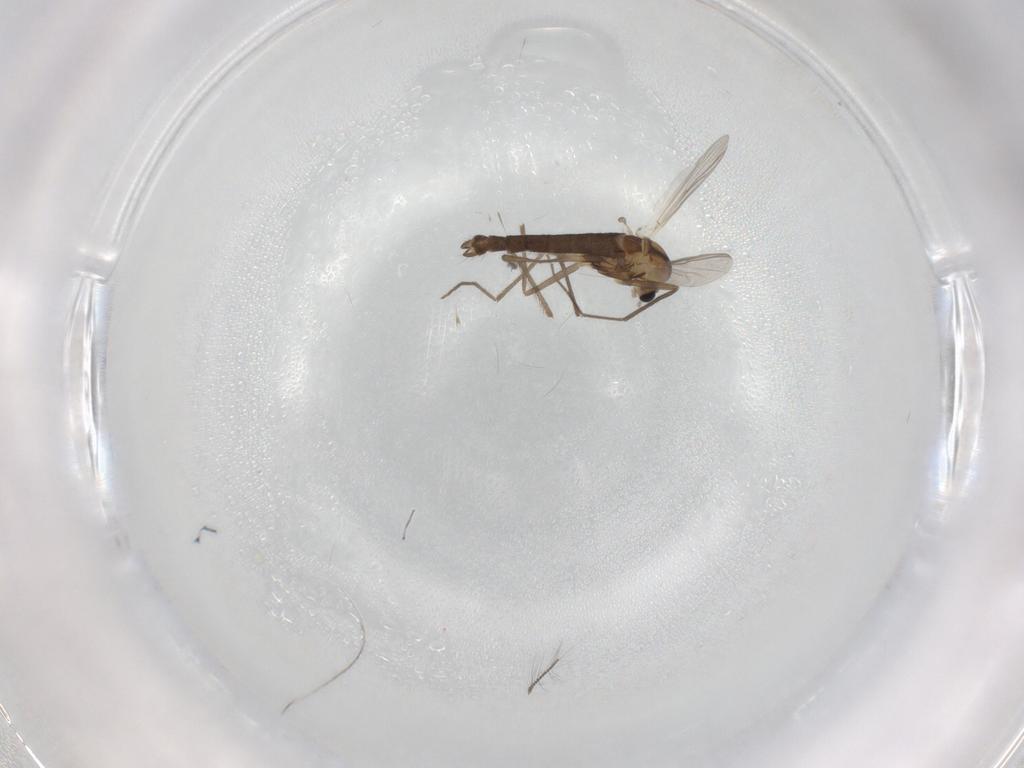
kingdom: Animalia
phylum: Arthropoda
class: Insecta
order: Diptera
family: Chironomidae
